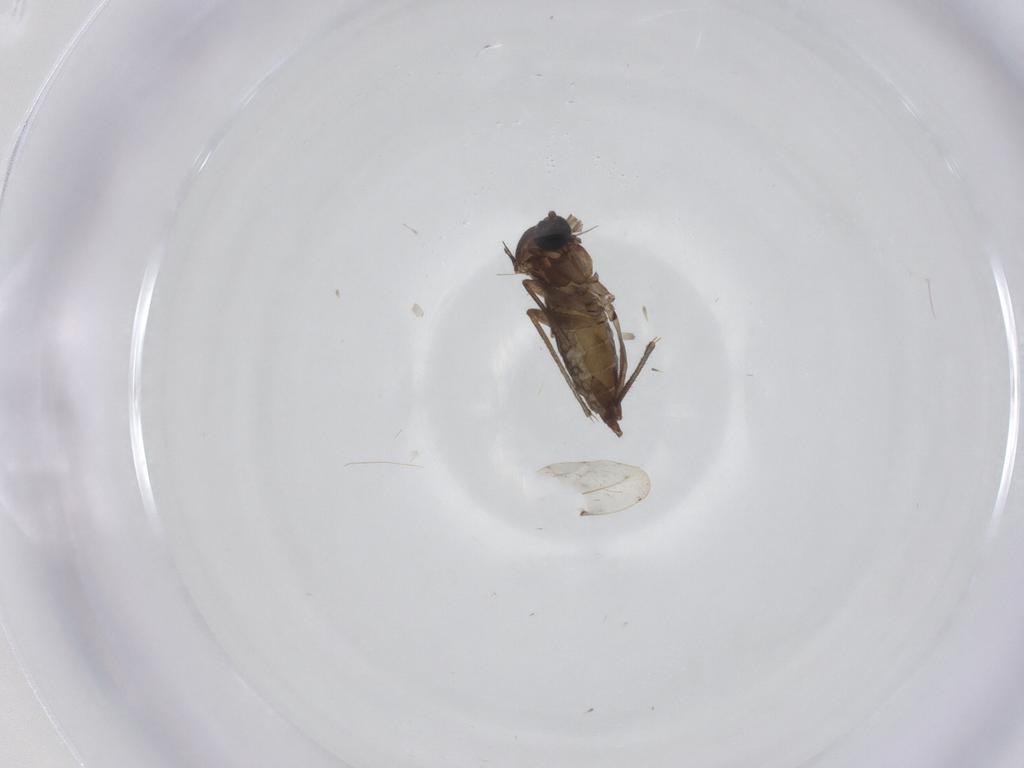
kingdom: Animalia
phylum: Arthropoda
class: Insecta
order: Diptera
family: Sciaridae
